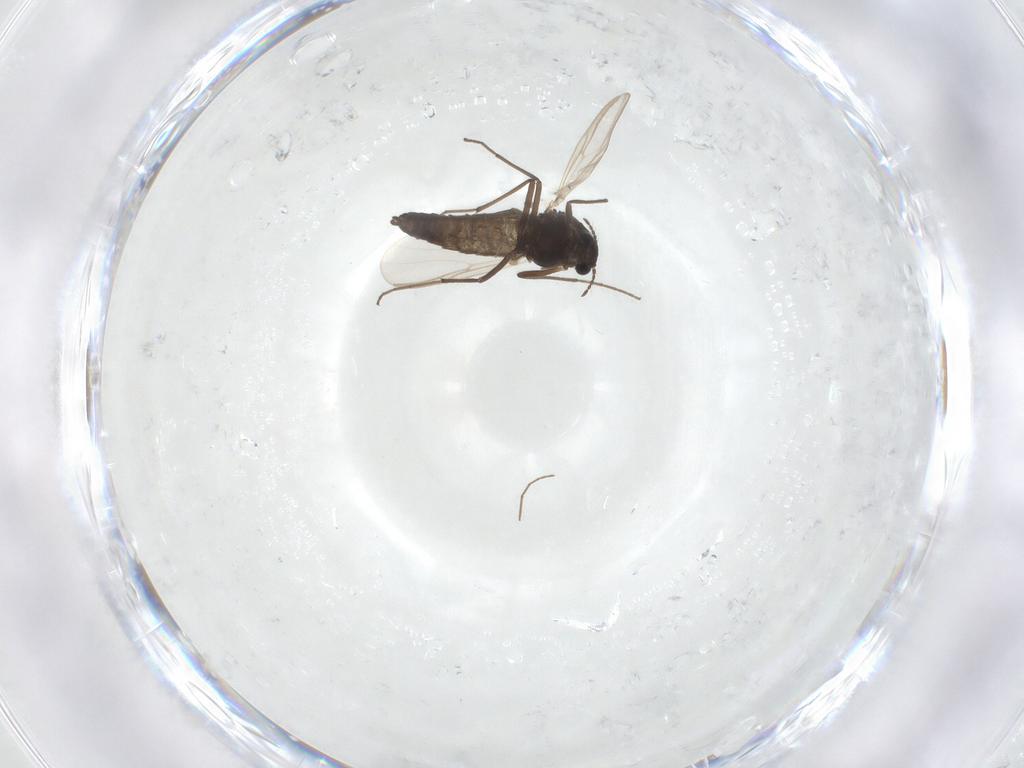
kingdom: Animalia
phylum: Arthropoda
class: Insecta
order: Diptera
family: Chironomidae
